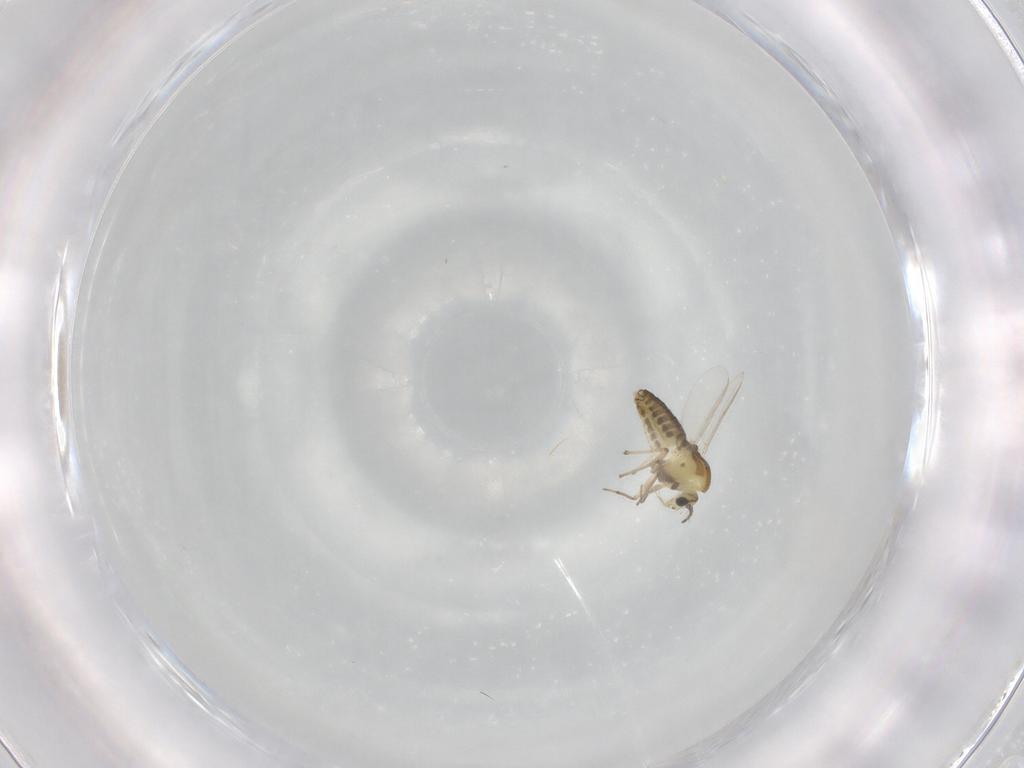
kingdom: Animalia
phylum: Arthropoda
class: Insecta
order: Diptera
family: Chironomidae
